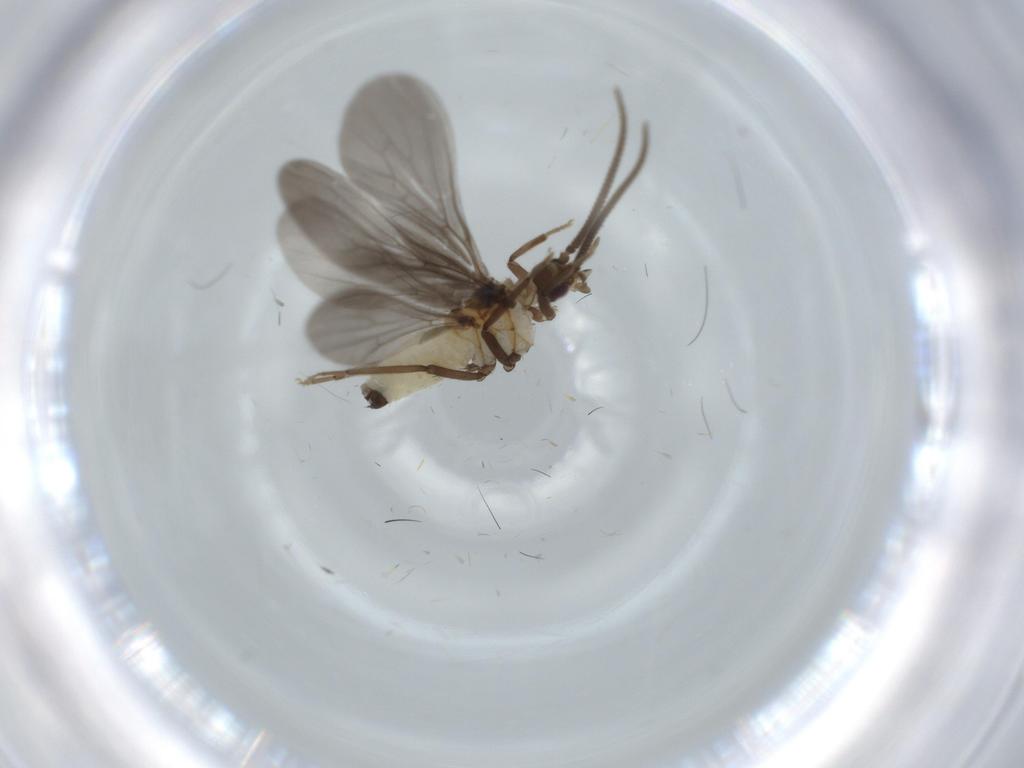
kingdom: Animalia
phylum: Arthropoda
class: Insecta
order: Neuroptera
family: Coniopterygidae
